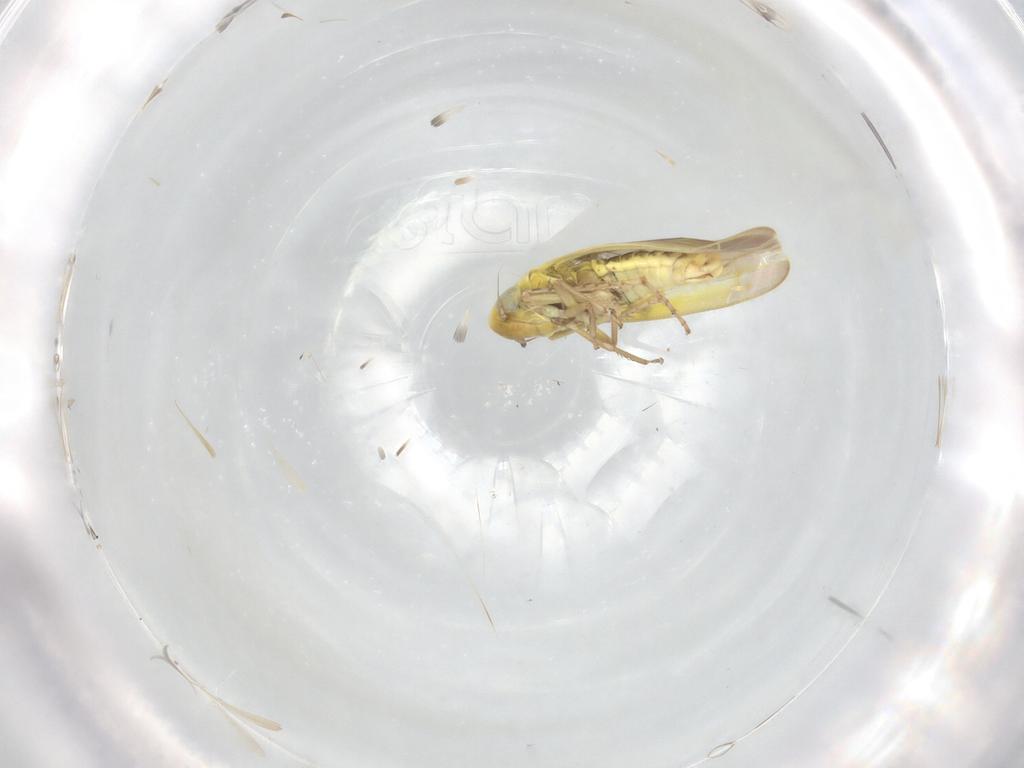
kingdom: Animalia
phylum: Arthropoda
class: Insecta
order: Hemiptera
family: Cicadellidae
